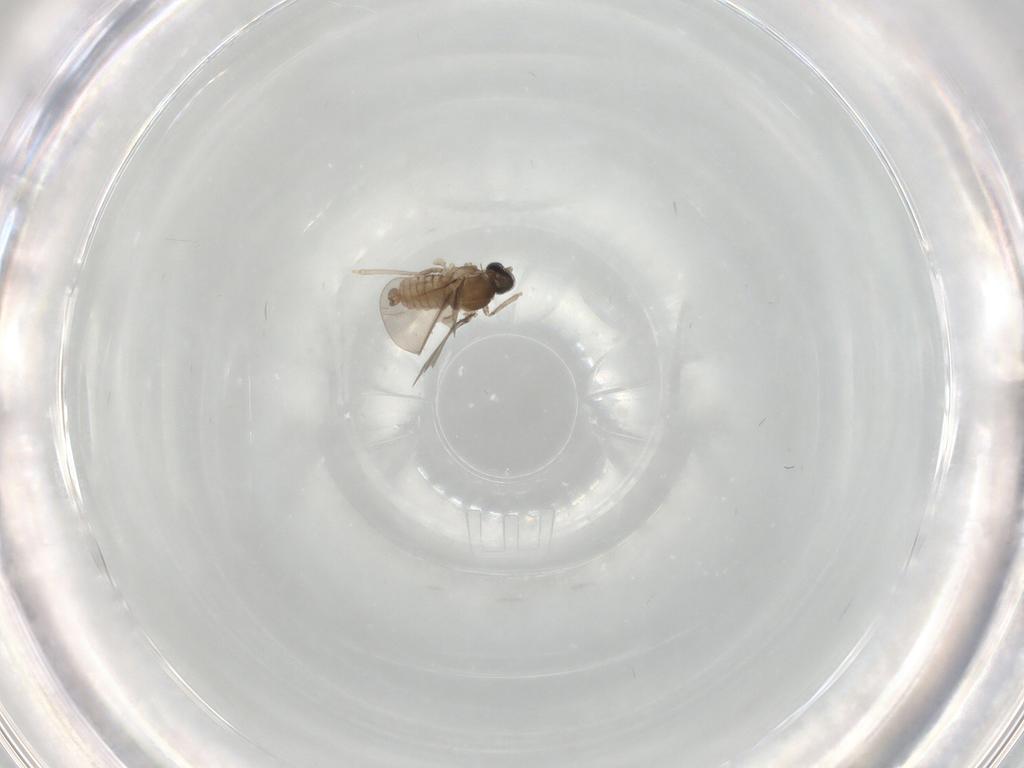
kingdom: Animalia
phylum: Arthropoda
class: Insecta
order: Diptera
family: Cecidomyiidae
